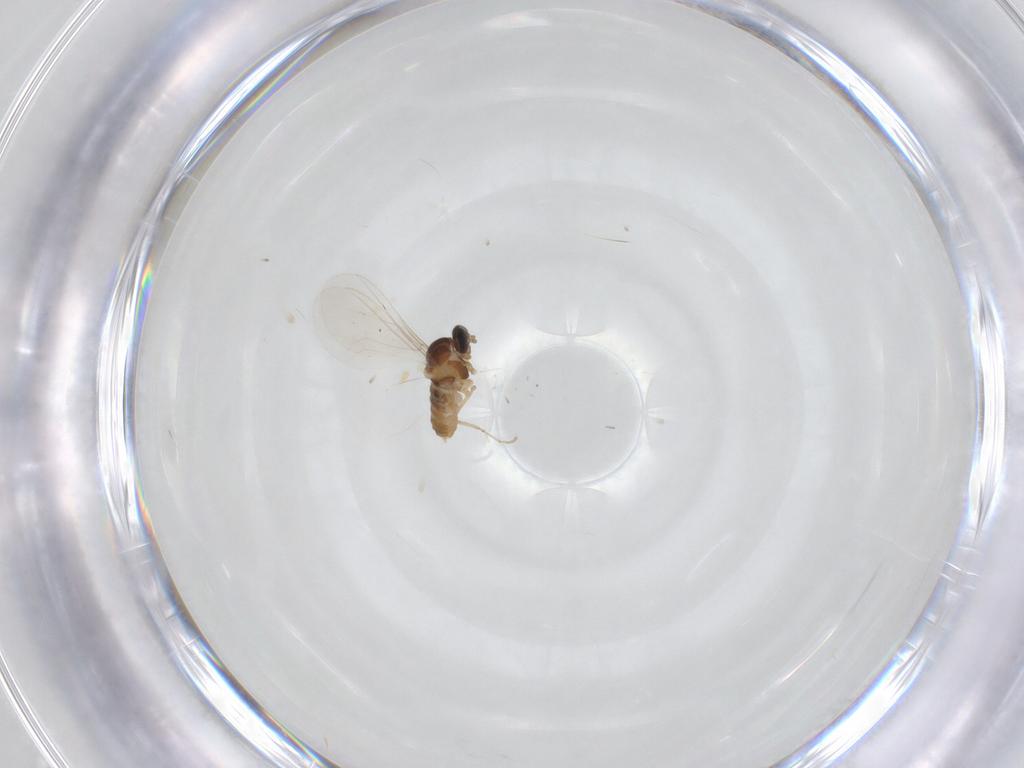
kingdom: Animalia
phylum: Arthropoda
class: Insecta
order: Diptera
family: Cecidomyiidae
